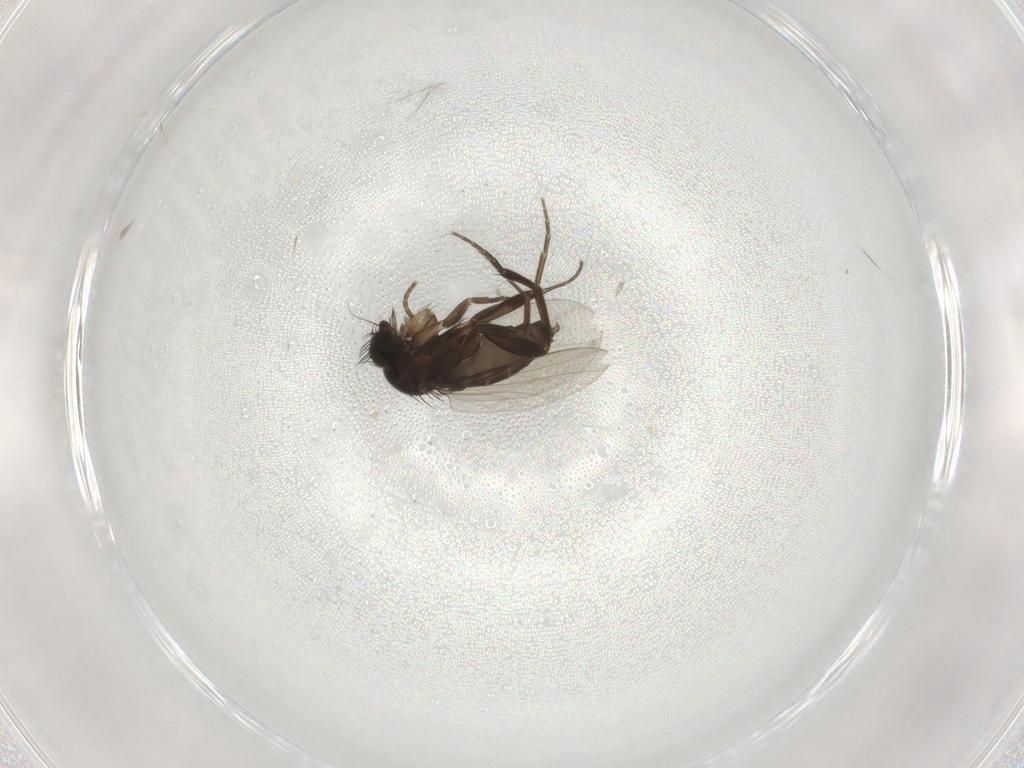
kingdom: Animalia
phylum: Arthropoda
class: Insecta
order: Diptera
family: Phoridae
